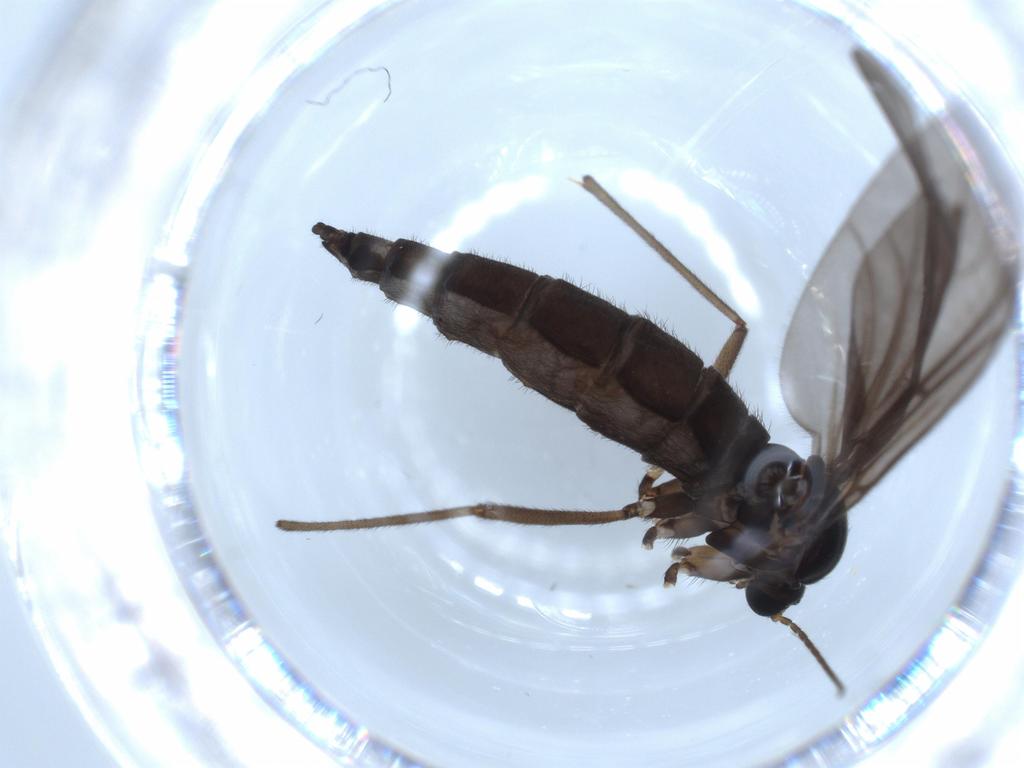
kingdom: Animalia
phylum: Arthropoda
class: Insecta
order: Diptera
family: Sciaridae
